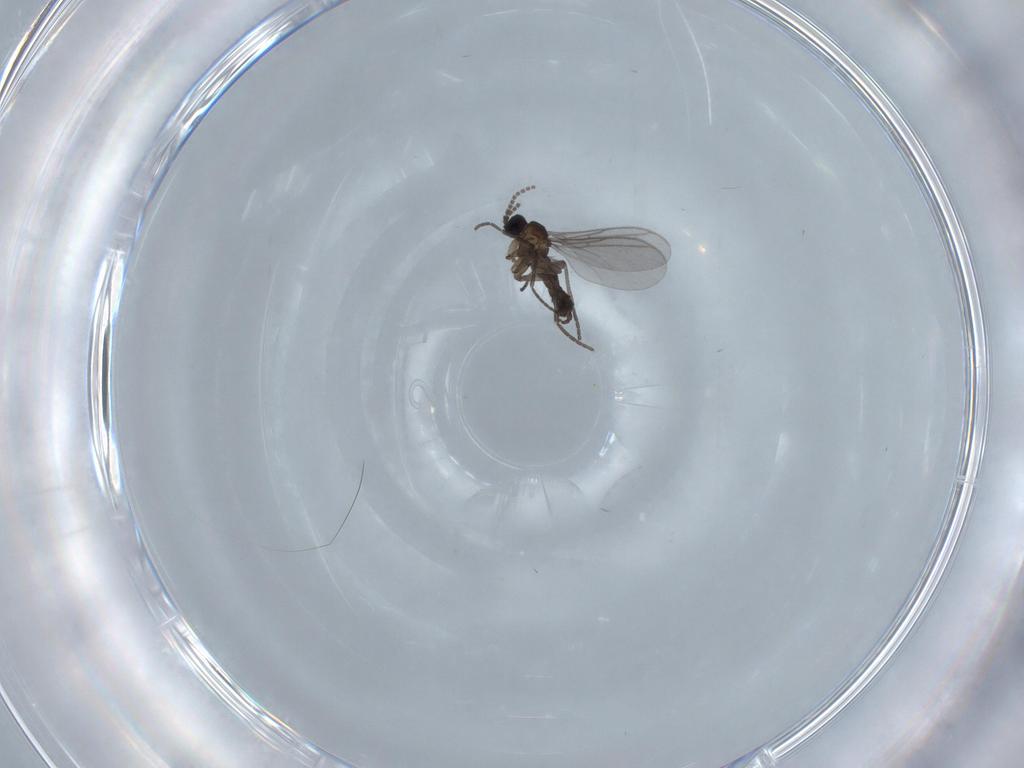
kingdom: Animalia
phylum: Arthropoda
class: Insecta
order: Diptera
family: Dolichopodidae
